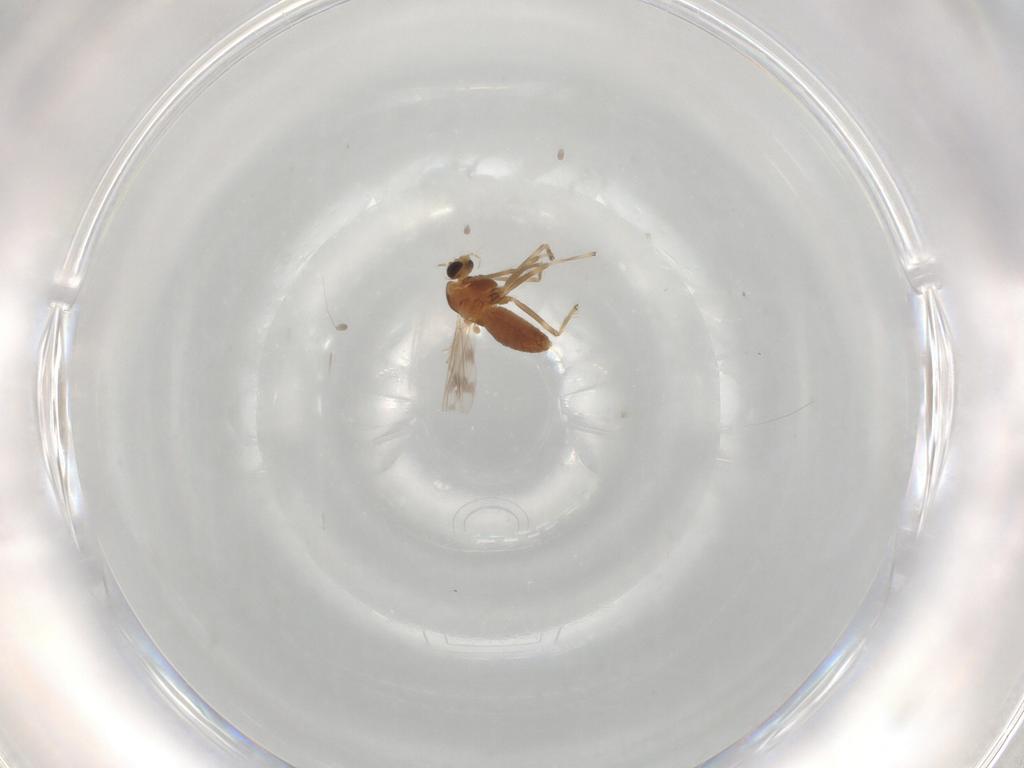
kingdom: Animalia
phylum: Arthropoda
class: Insecta
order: Diptera
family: Chironomidae
